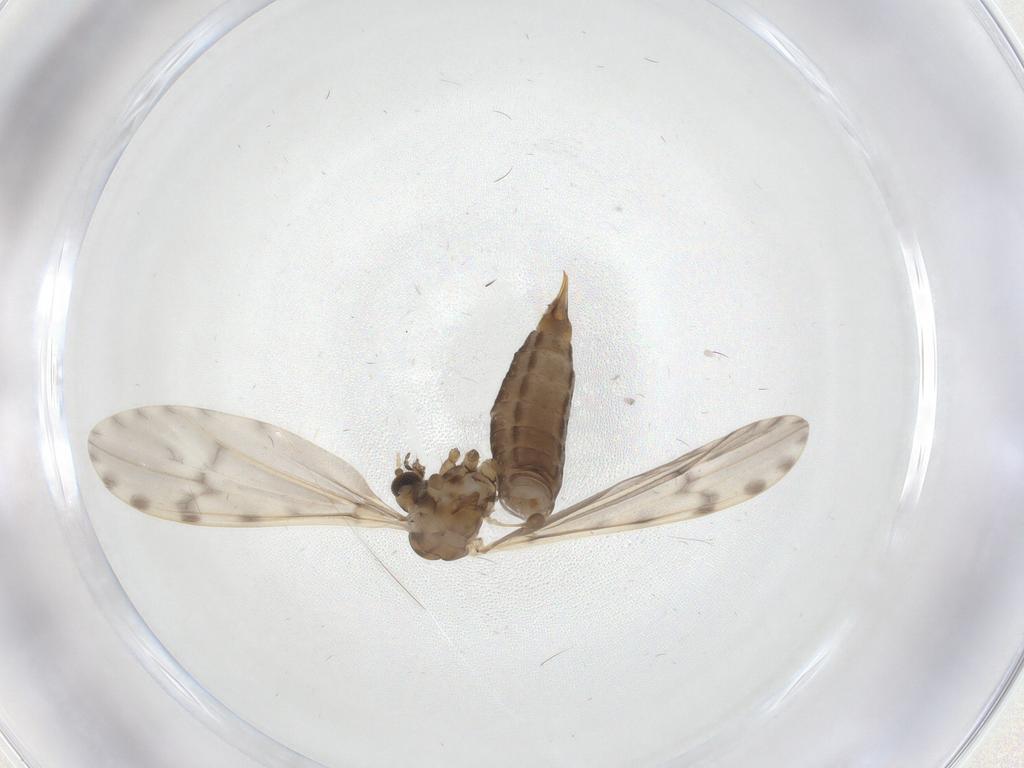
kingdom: Animalia
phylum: Arthropoda
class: Insecta
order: Diptera
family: Limoniidae
